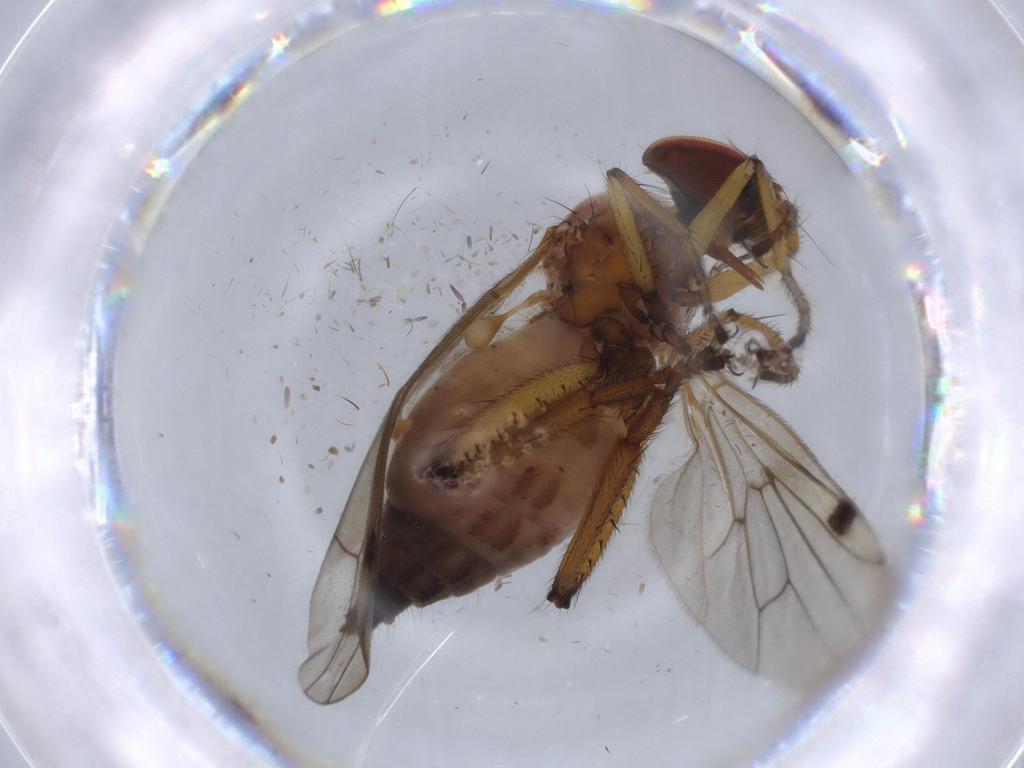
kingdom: Animalia
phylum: Arthropoda
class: Insecta
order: Diptera
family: Hybotidae
